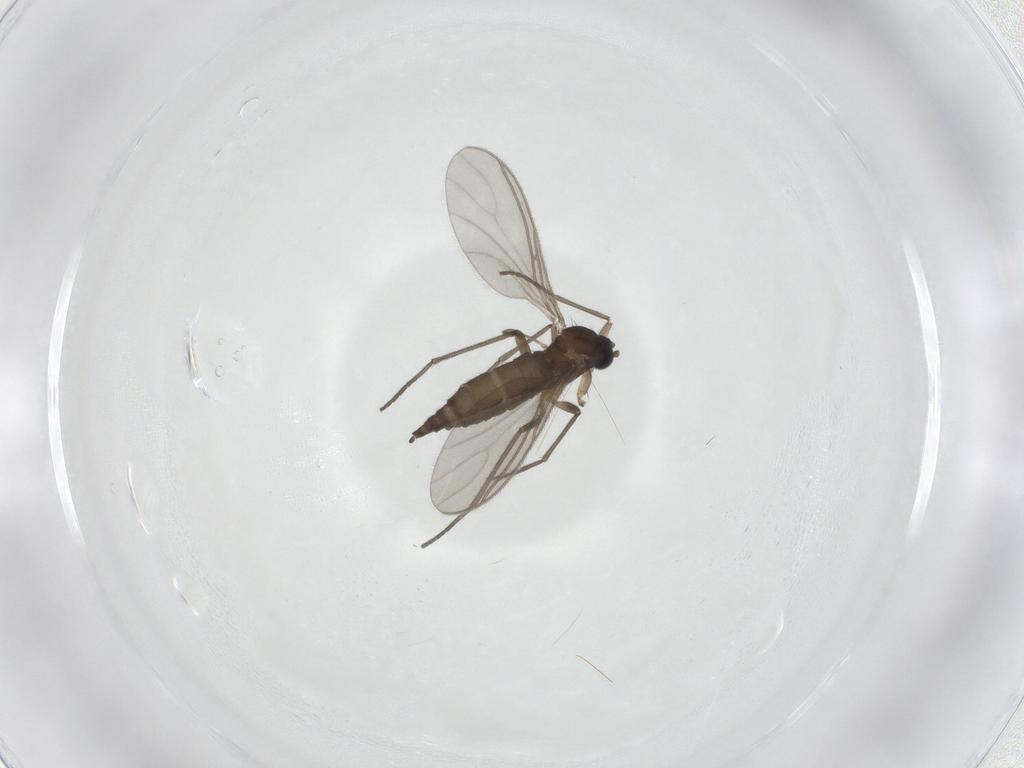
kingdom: Animalia
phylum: Arthropoda
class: Insecta
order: Diptera
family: Sciaridae
